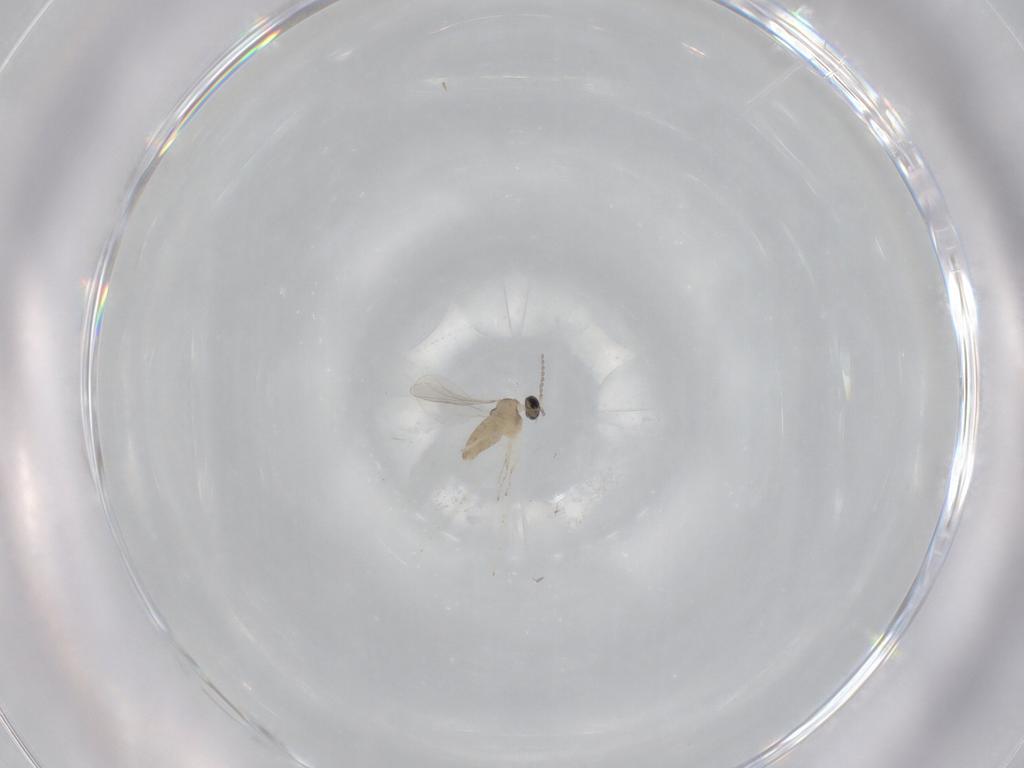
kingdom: Animalia
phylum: Arthropoda
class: Insecta
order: Diptera
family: Cecidomyiidae
